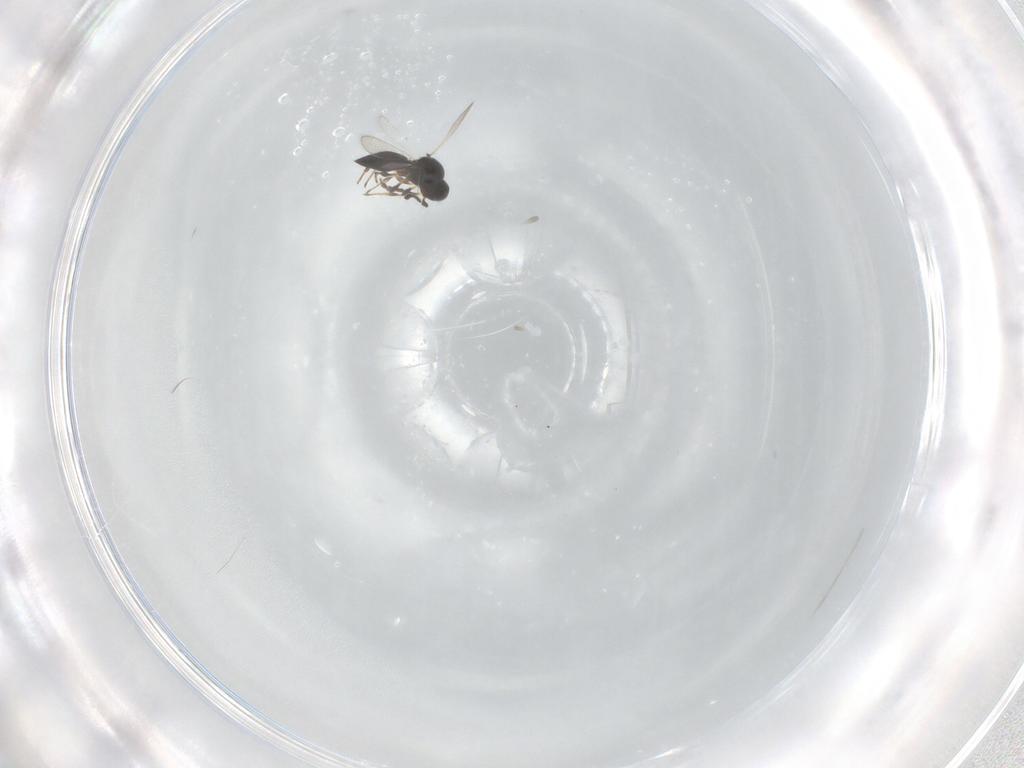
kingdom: Animalia
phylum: Arthropoda
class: Insecta
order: Hymenoptera
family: Platygastridae
